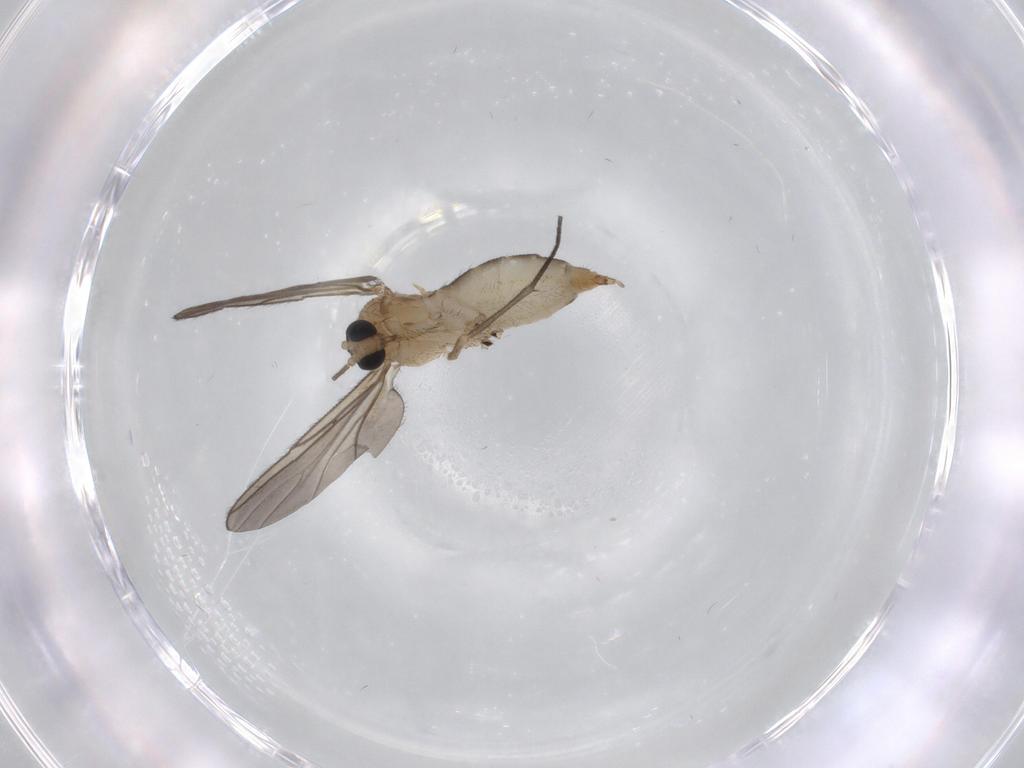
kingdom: Animalia
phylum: Arthropoda
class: Insecta
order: Diptera
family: Sciaridae
